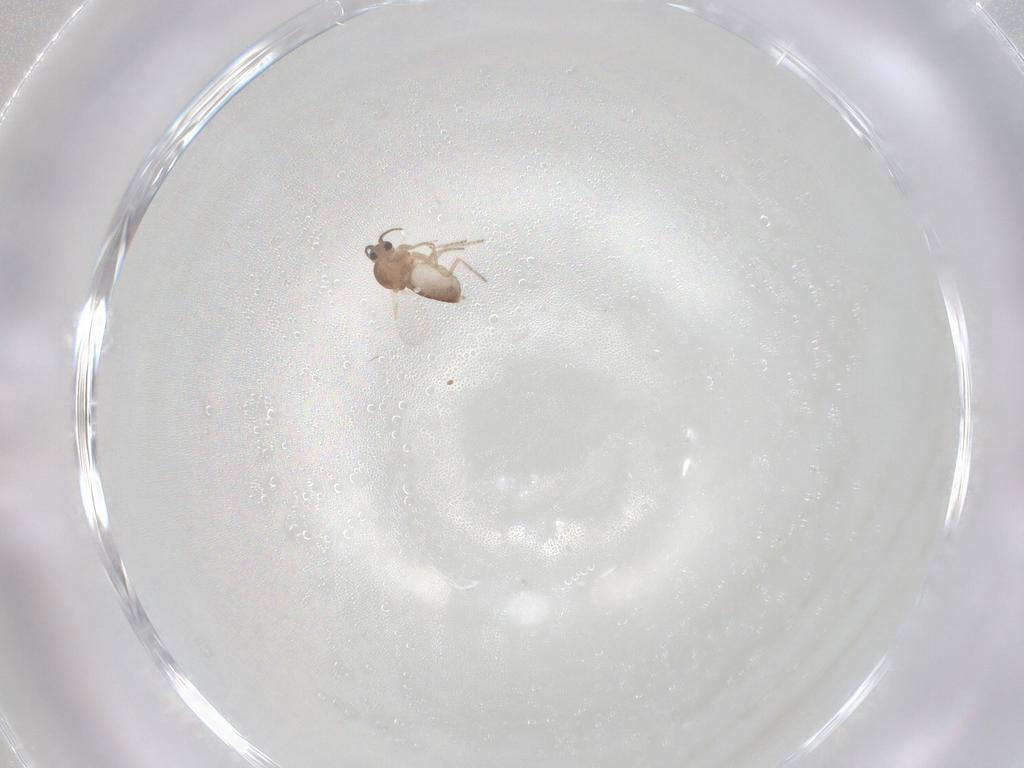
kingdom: Animalia
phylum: Arthropoda
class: Insecta
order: Diptera
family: Ceratopogonidae
